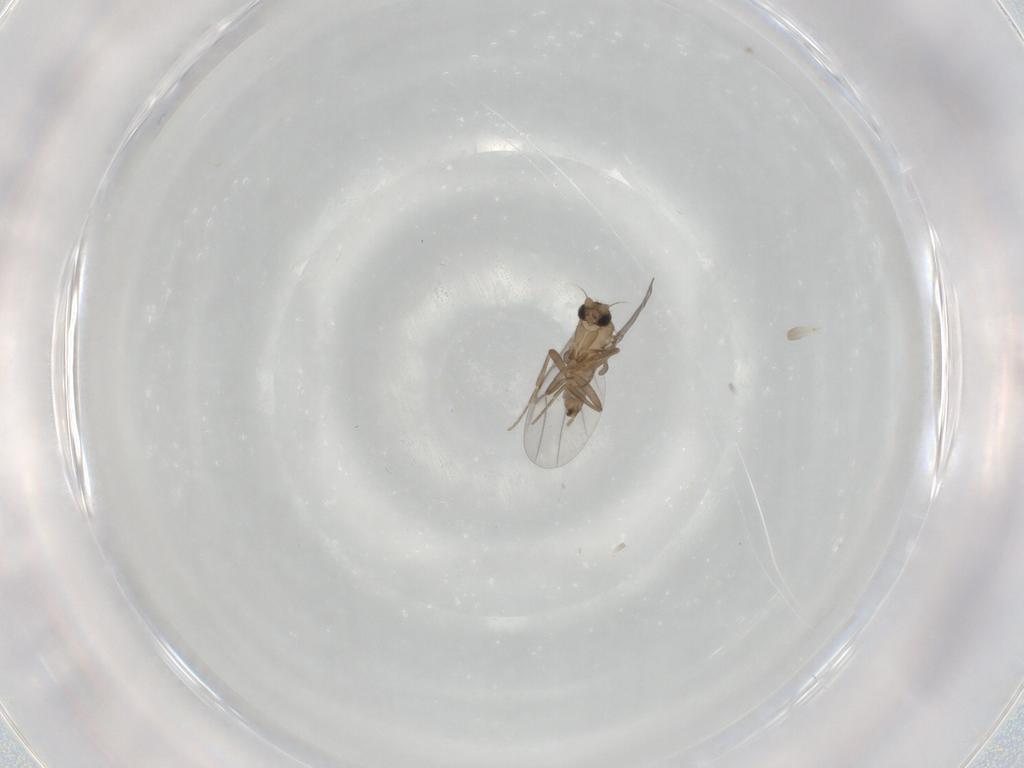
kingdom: Animalia
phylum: Arthropoda
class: Insecta
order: Diptera
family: Cecidomyiidae
